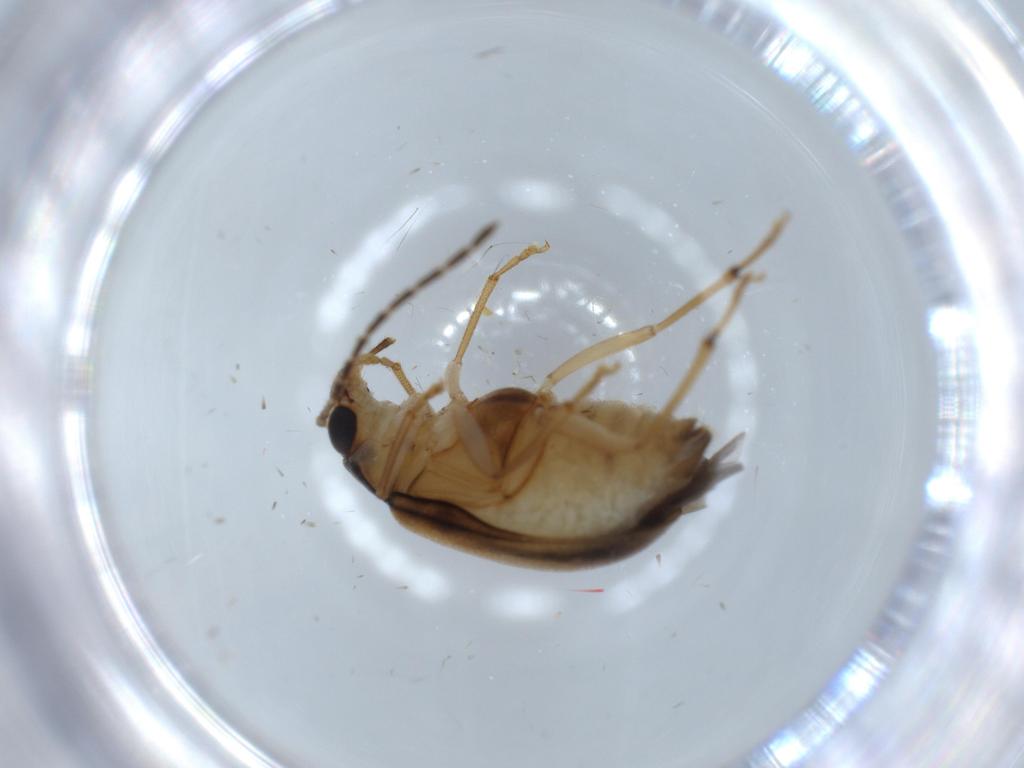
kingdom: Animalia
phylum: Arthropoda
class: Insecta
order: Coleoptera
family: Chrysomelidae
